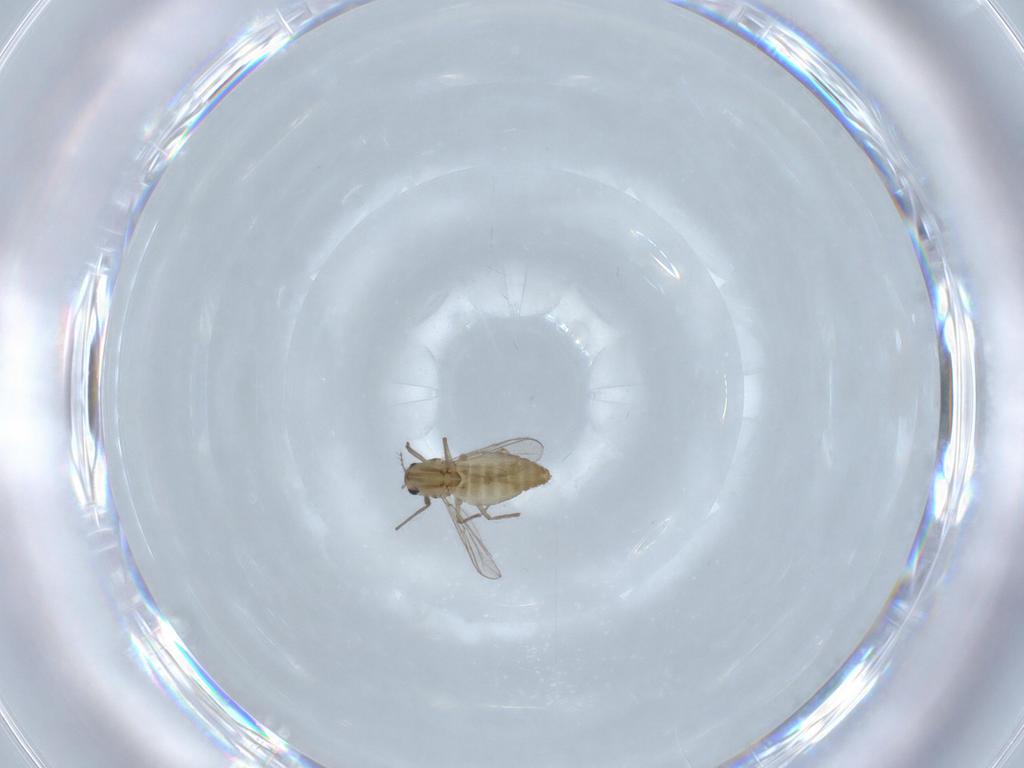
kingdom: Animalia
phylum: Arthropoda
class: Insecta
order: Diptera
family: Chironomidae
